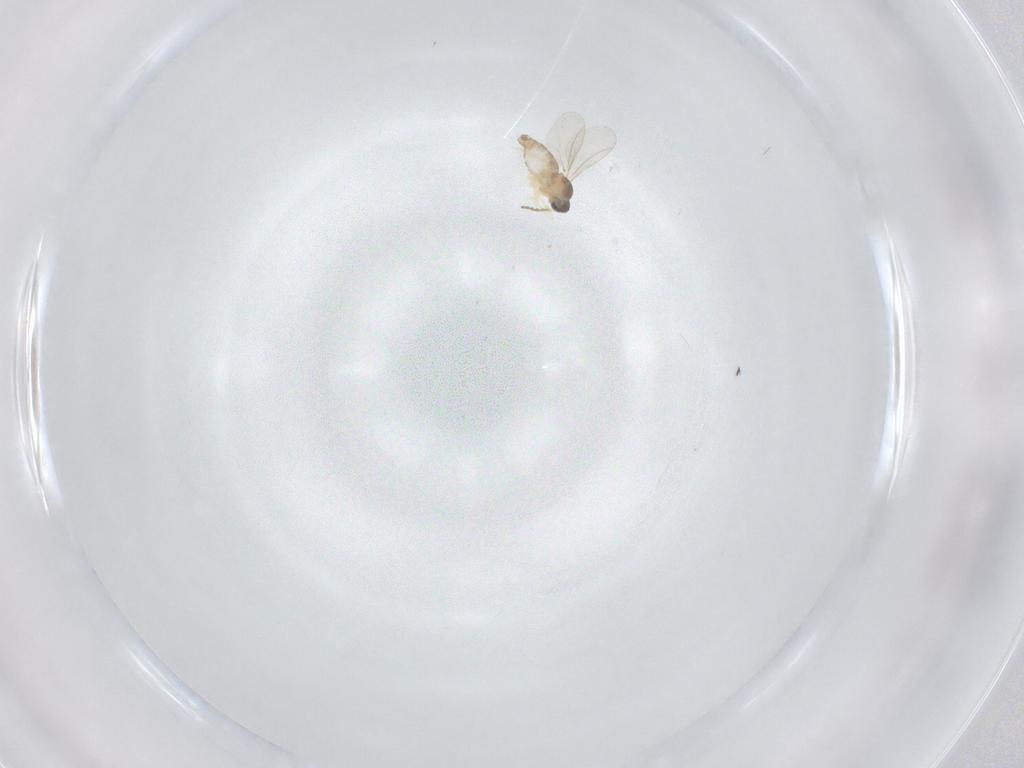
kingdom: Animalia
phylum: Arthropoda
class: Insecta
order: Diptera
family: Cecidomyiidae
